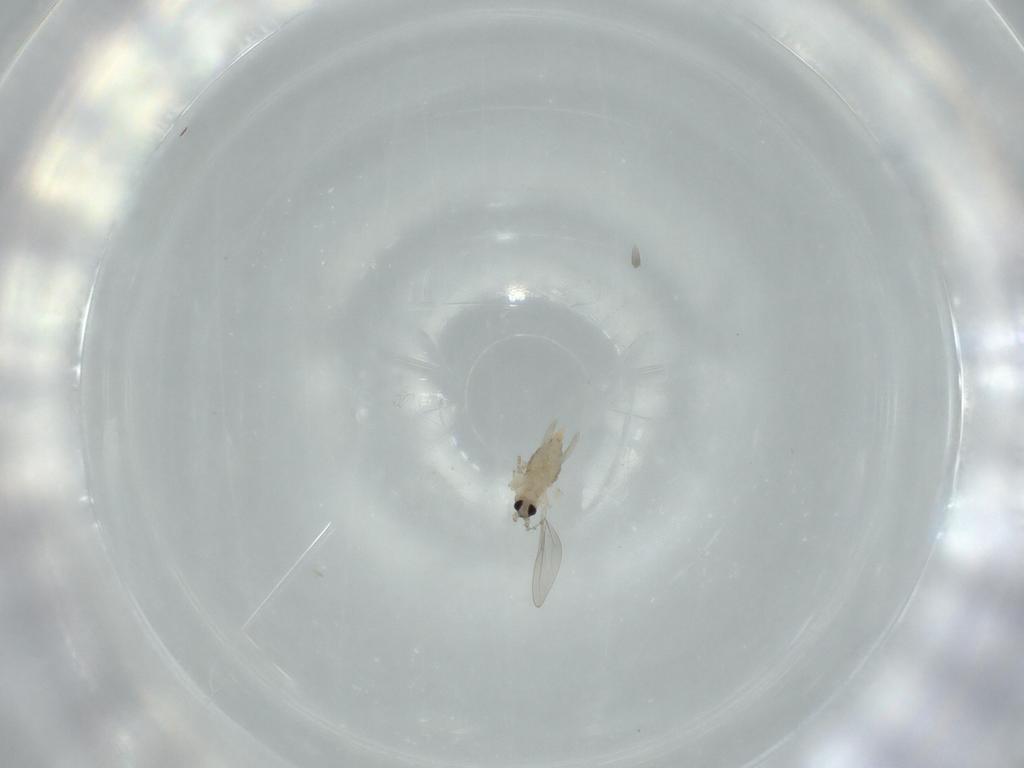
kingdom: Animalia
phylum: Arthropoda
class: Insecta
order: Diptera
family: Cecidomyiidae
